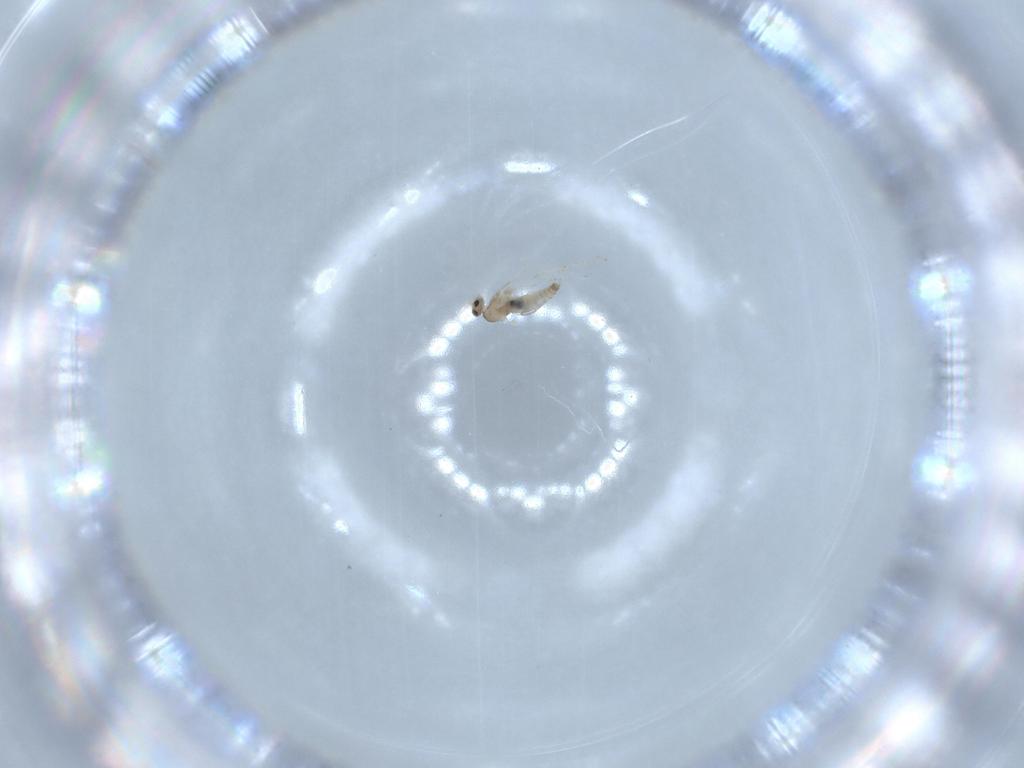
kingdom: Animalia
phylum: Arthropoda
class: Insecta
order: Diptera
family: Cecidomyiidae
